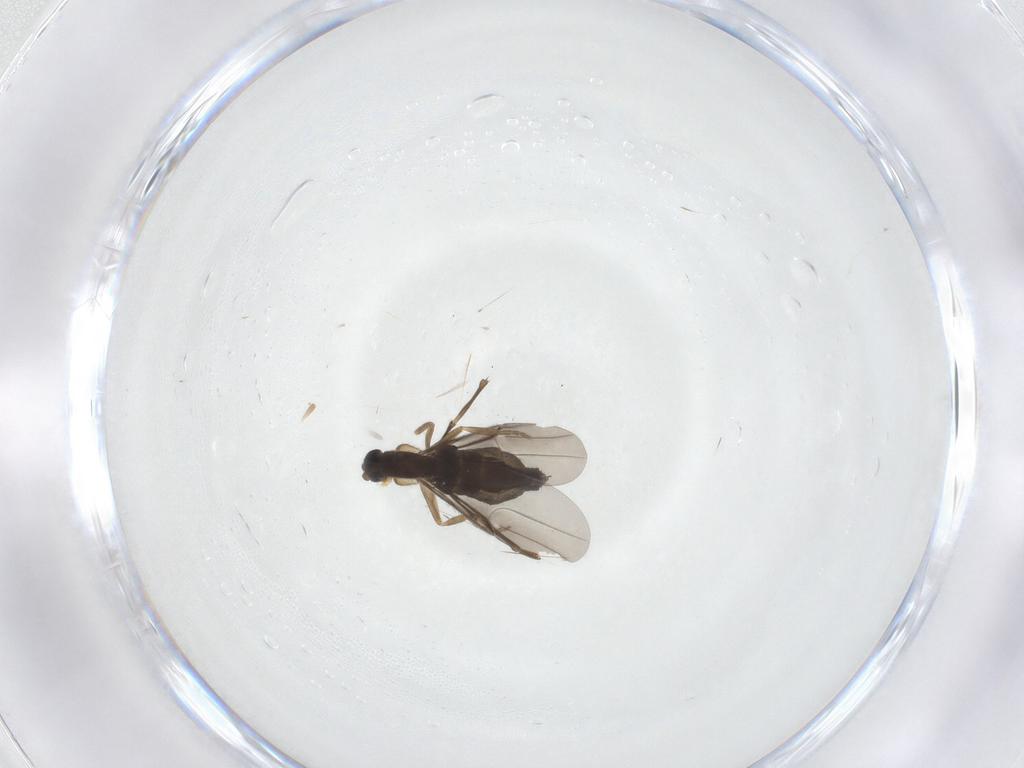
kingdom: Animalia
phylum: Arthropoda
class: Insecta
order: Diptera
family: Phoridae
